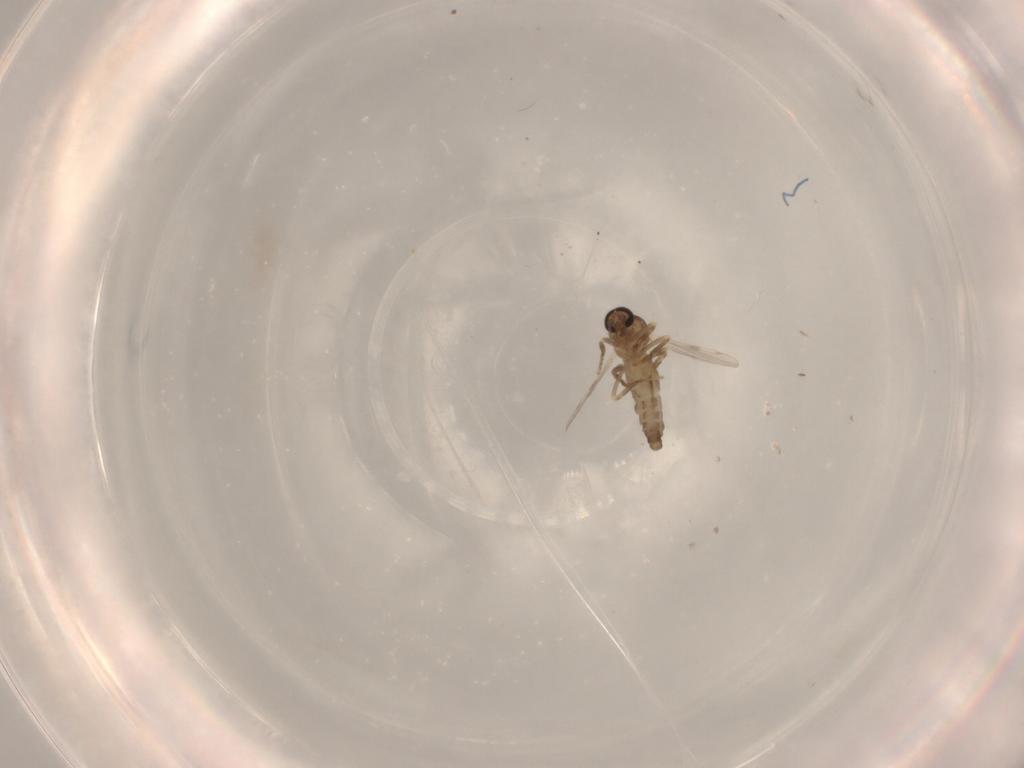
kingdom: Animalia
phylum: Arthropoda
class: Insecta
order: Diptera
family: Ceratopogonidae
